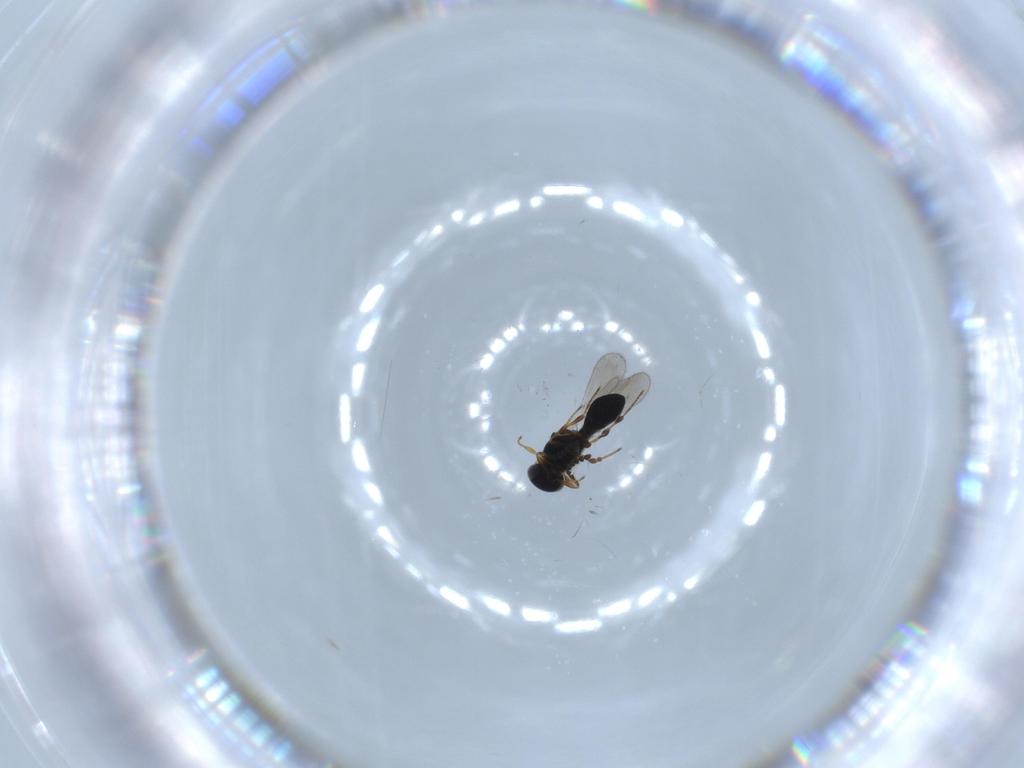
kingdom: Animalia
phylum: Arthropoda
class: Insecta
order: Hymenoptera
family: Platygastridae
